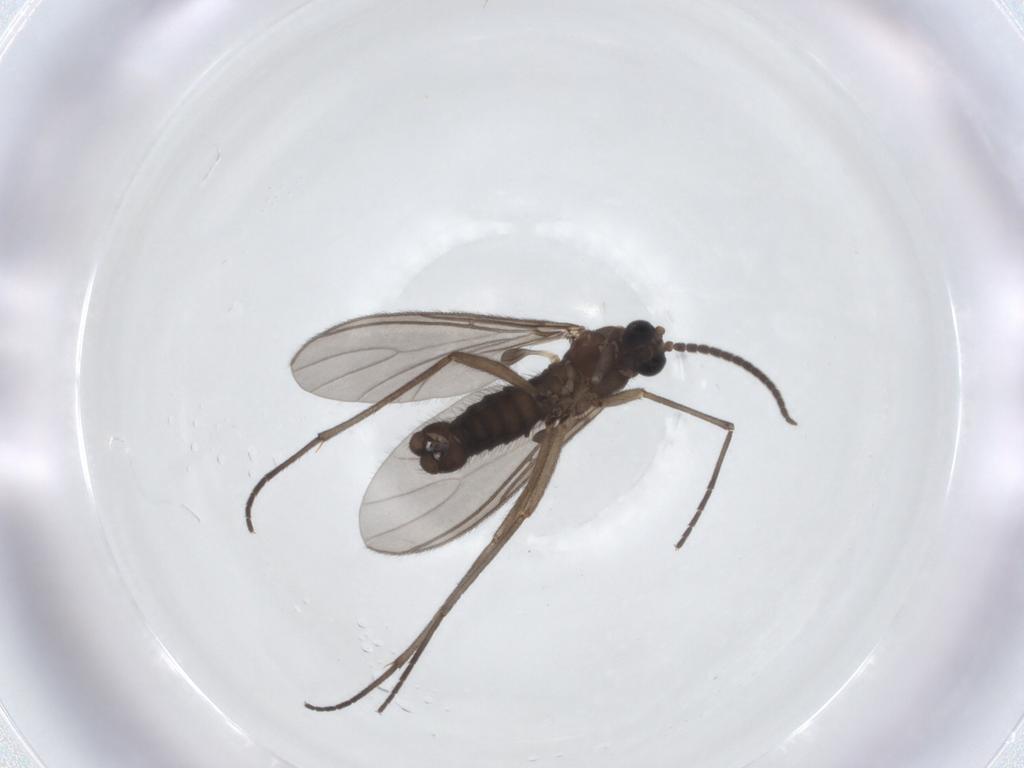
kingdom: Animalia
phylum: Arthropoda
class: Insecta
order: Diptera
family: Sciaridae
